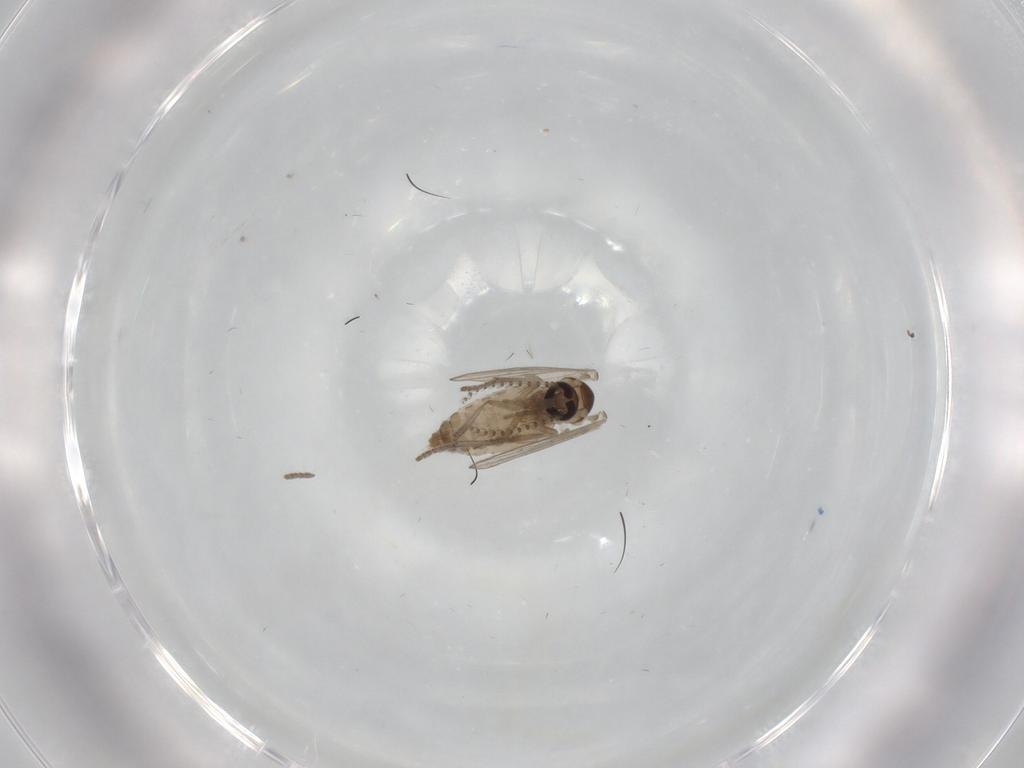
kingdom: Animalia
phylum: Arthropoda
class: Insecta
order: Diptera
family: Psychodidae
